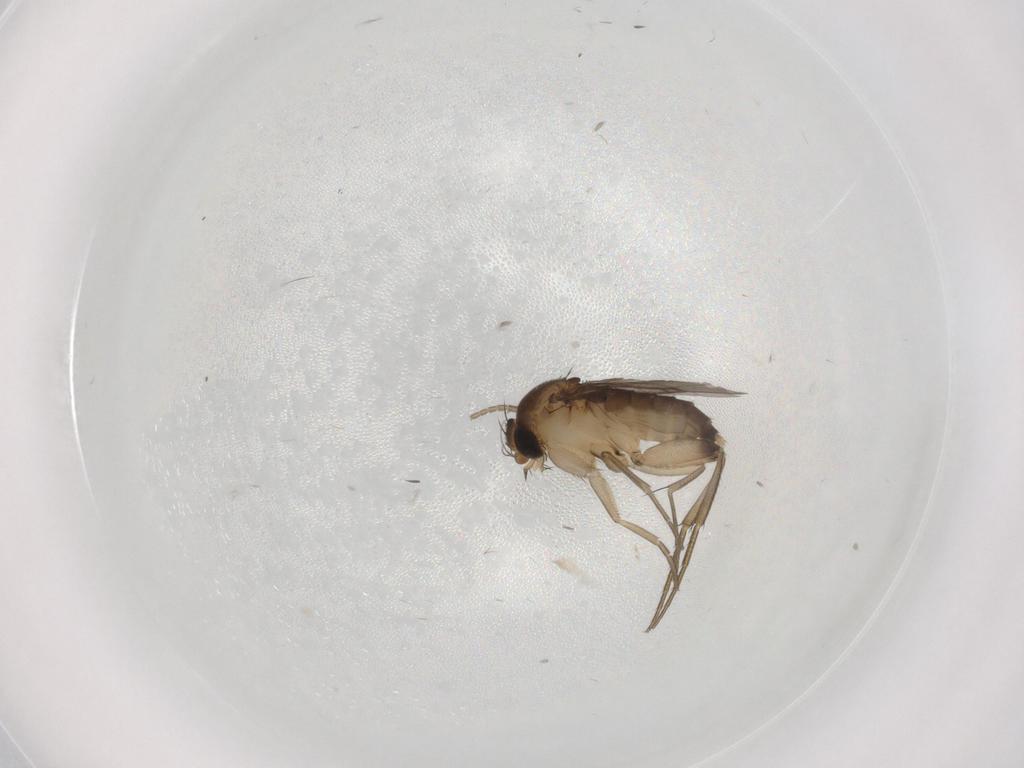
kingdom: Animalia
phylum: Arthropoda
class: Insecta
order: Diptera
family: Phoridae
